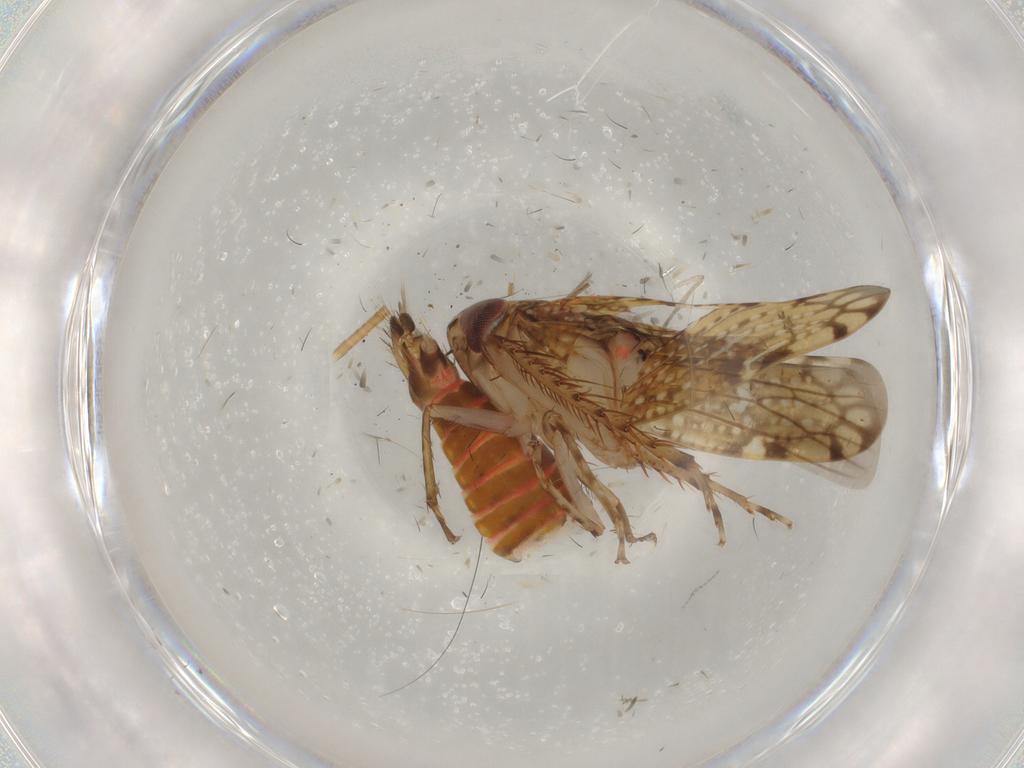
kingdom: Animalia
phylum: Arthropoda
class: Insecta
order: Hemiptera
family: Cicadellidae
